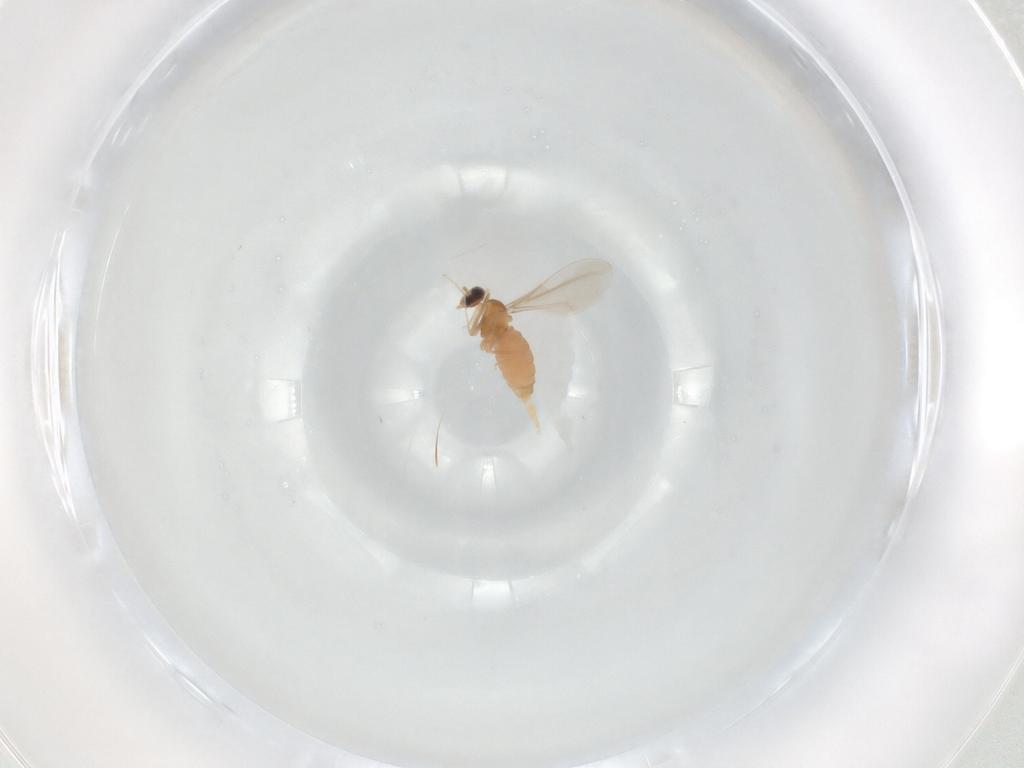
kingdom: Animalia
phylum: Arthropoda
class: Insecta
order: Diptera
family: Cecidomyiidae
